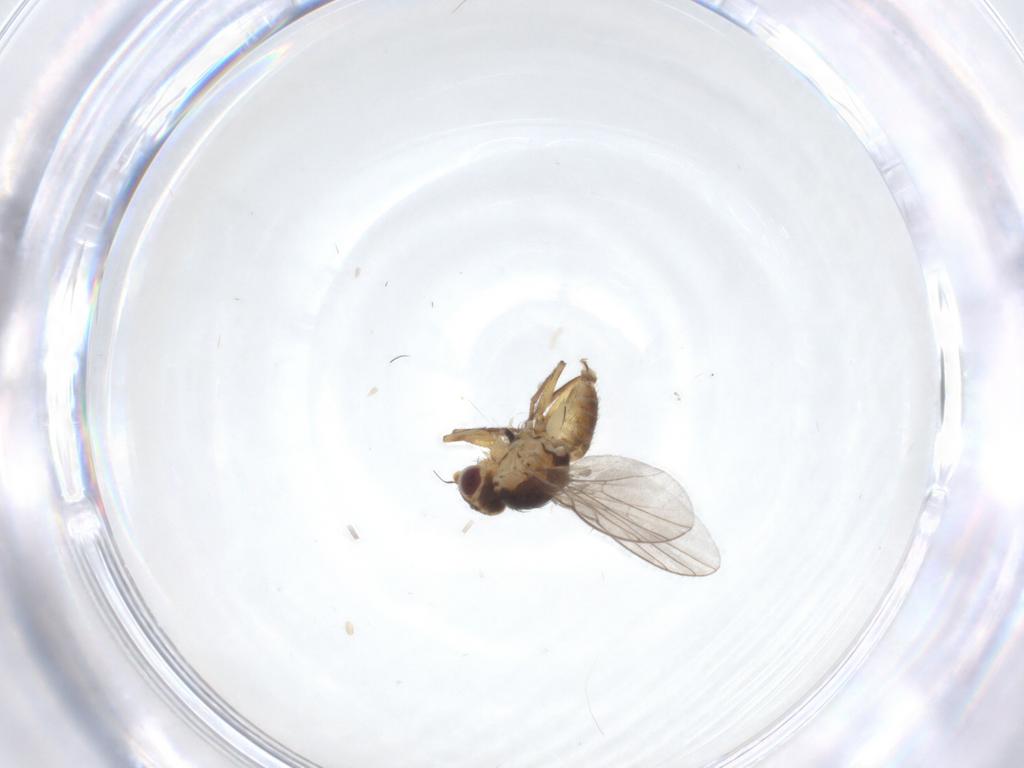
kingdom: Animalia
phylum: Arthropoda
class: Insecta
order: Diptera
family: Agromyzidae
